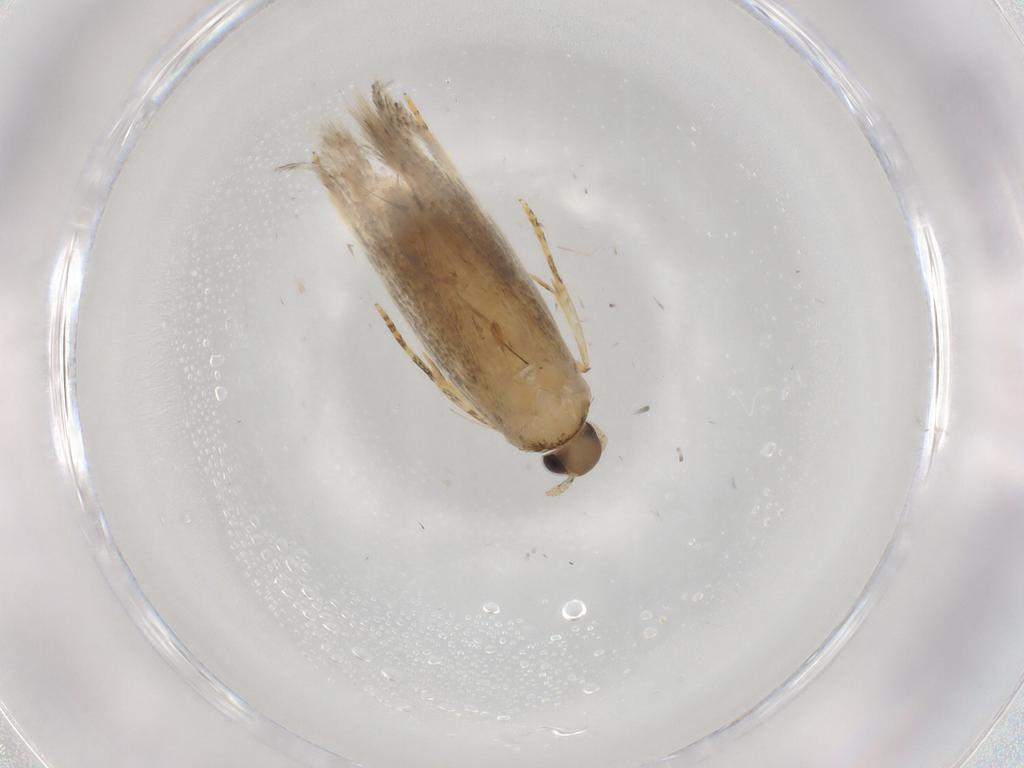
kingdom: Animalia
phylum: Arthropoda
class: Insecta
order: Lepidoptera
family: Autostichidae
